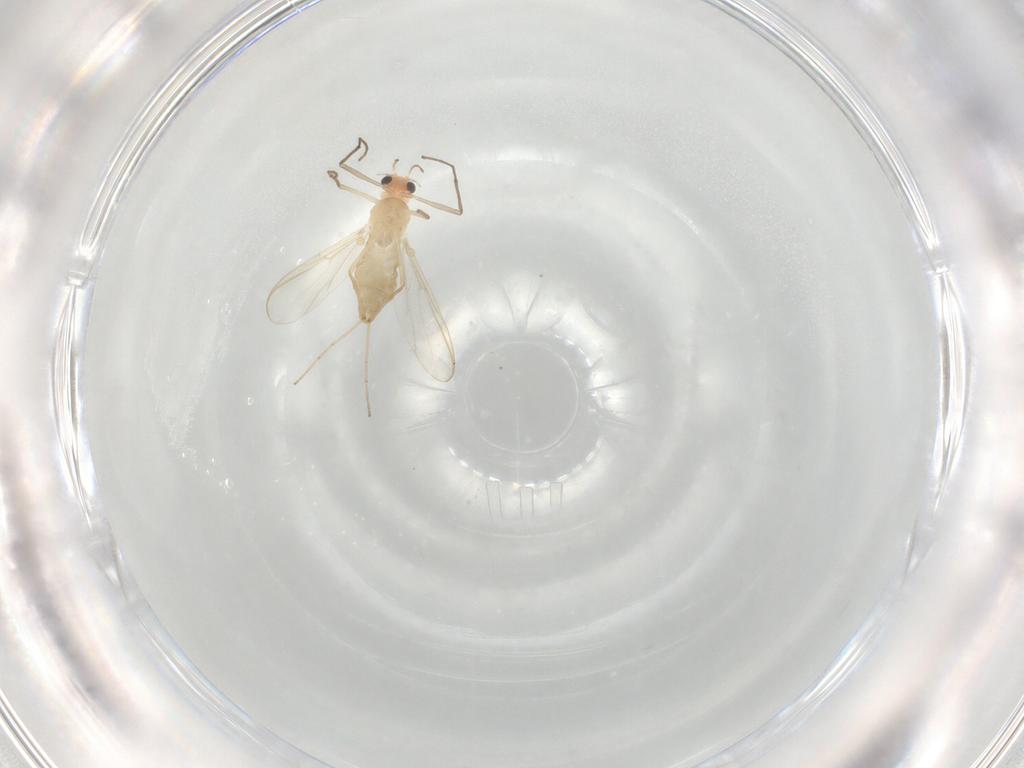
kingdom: Animalia
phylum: Arthropoda
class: Insecta
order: Diptera
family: Chironomidae
